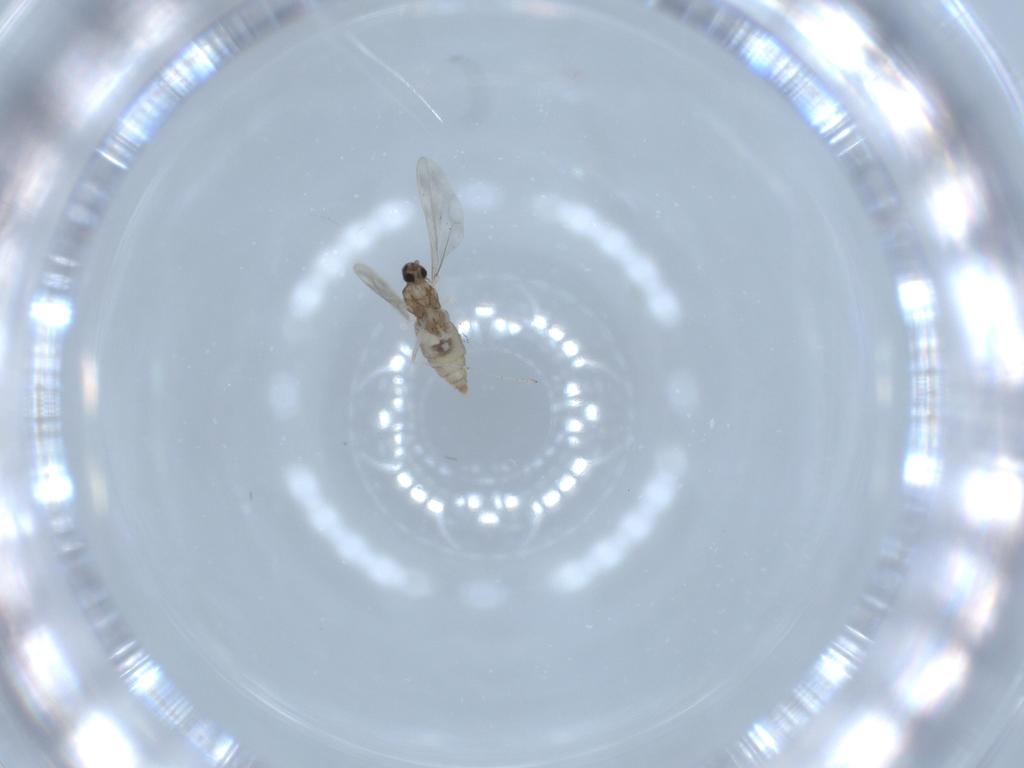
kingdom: Animalia
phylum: Arthropoda
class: Insecta
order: Diptera
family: Cecidomyiidae
